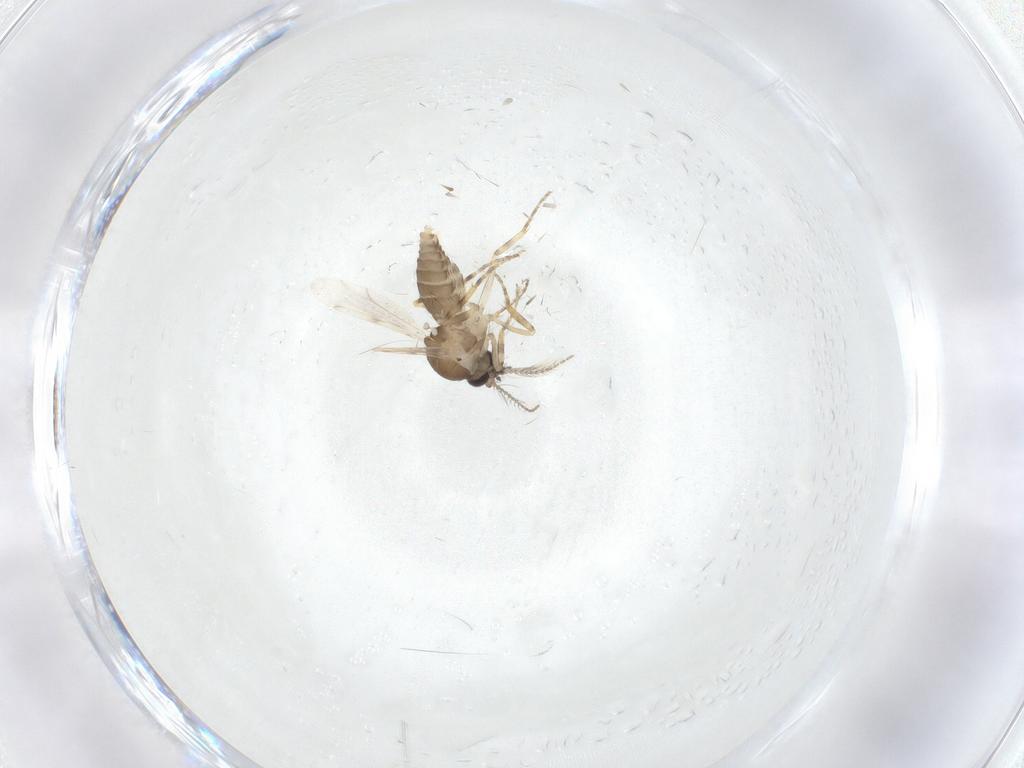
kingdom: Animalia
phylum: Arthropoda
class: Insecta
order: Diptera
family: Ceratopogonidae
